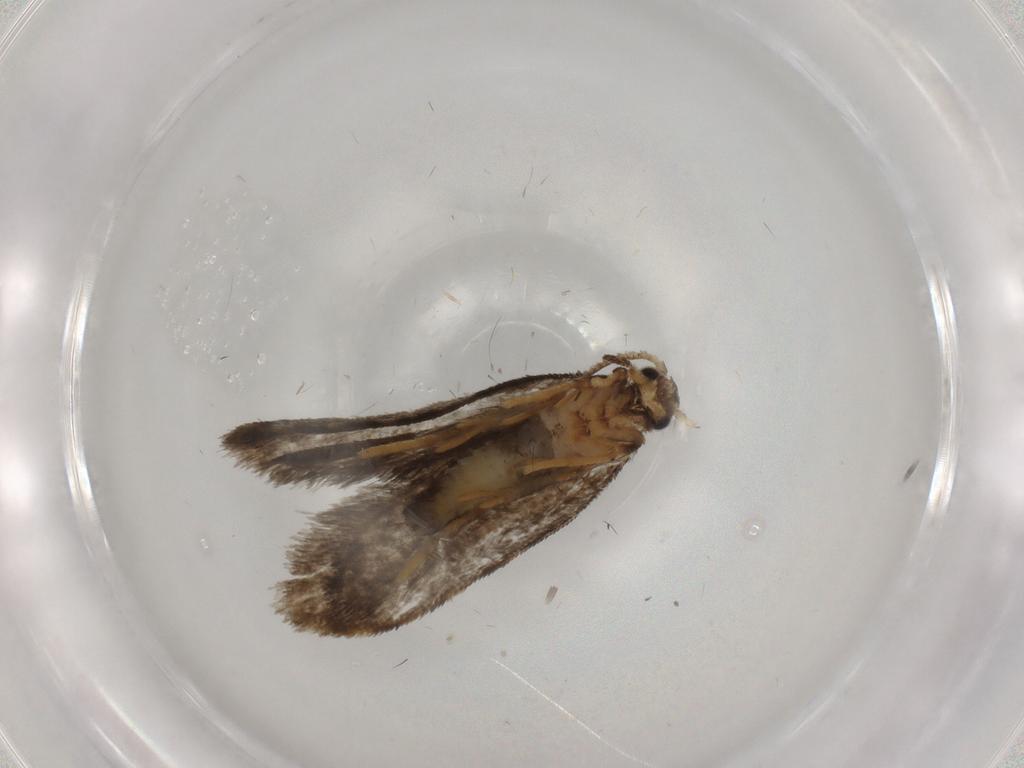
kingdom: Animalia
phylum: Arthropoda
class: Insecta
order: Lepidoptera
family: Psychidae
